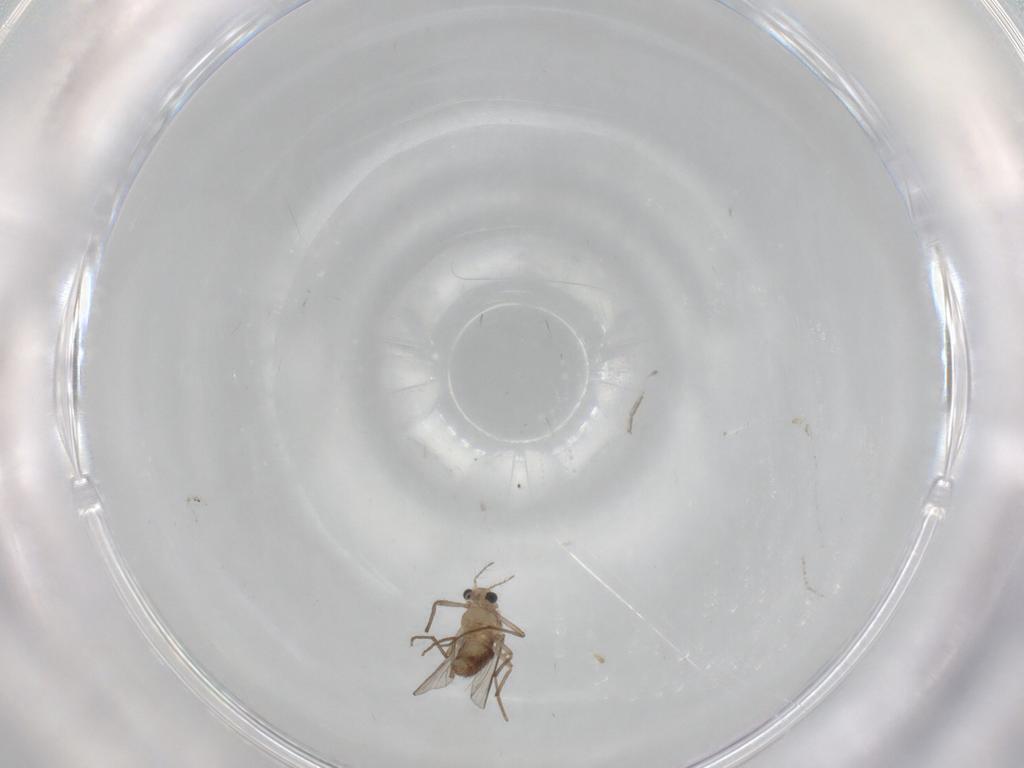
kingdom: Animalia
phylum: Arthropoda
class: Insecta
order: Diptera
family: Chironomidae
